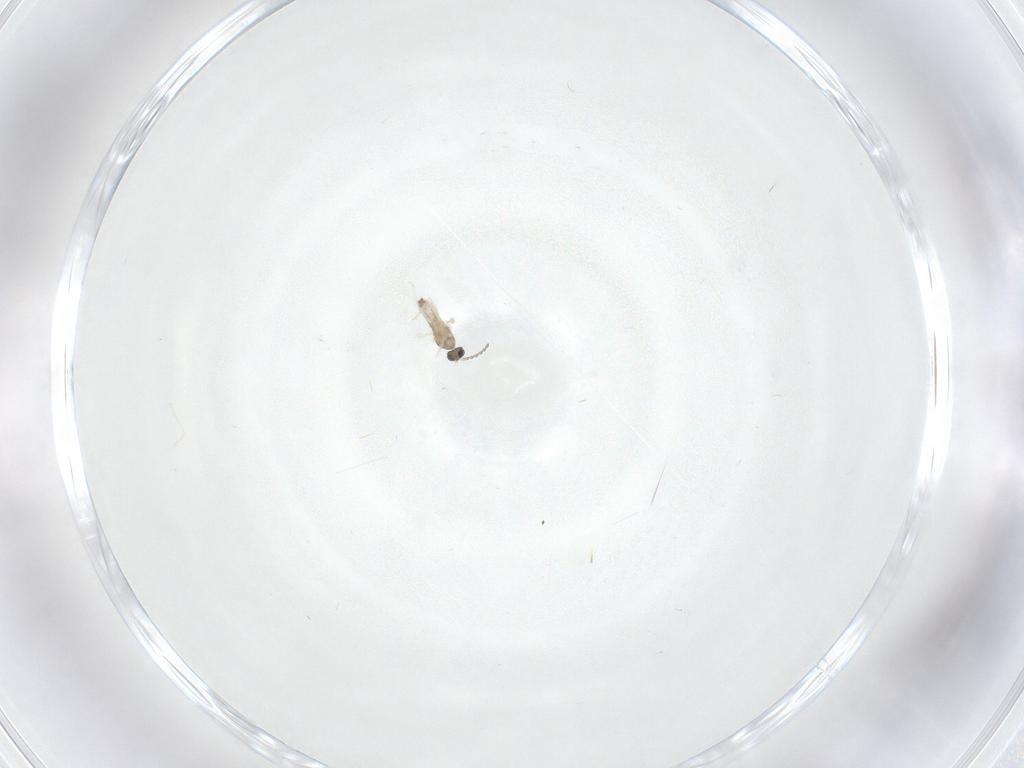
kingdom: Animalia
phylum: Arthropoda
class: Insecta
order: Diptera
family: Cecidomyiidae
